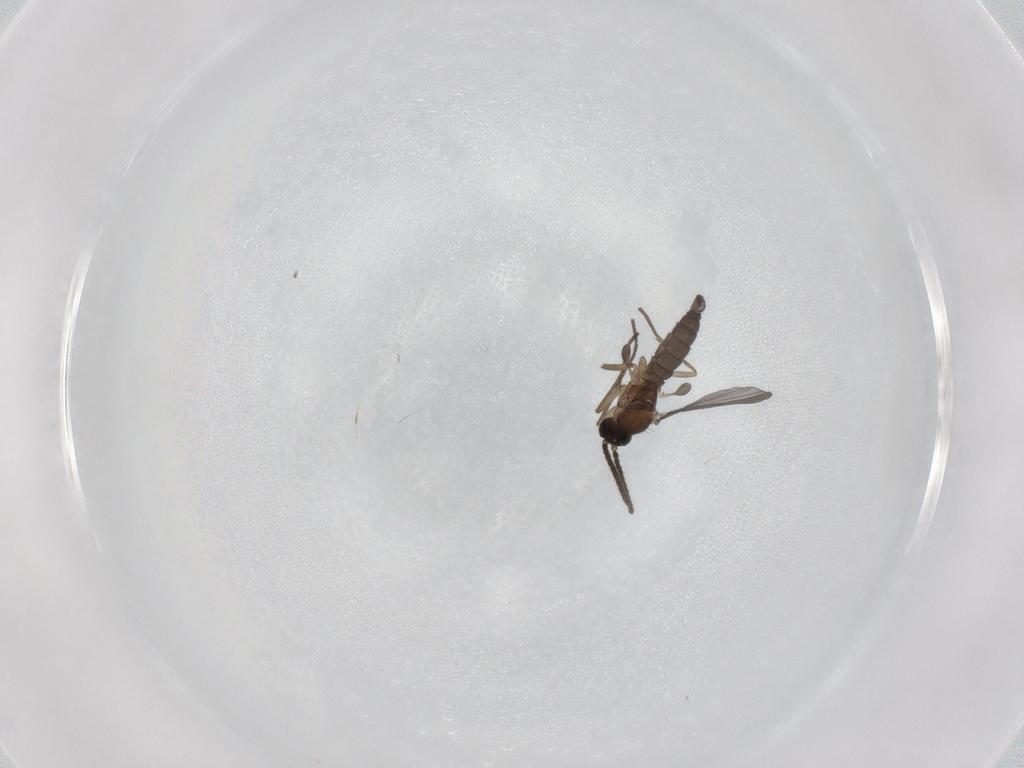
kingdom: Animalia
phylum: Arthropoda
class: Insecta
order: Diptera
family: Sciaridae
